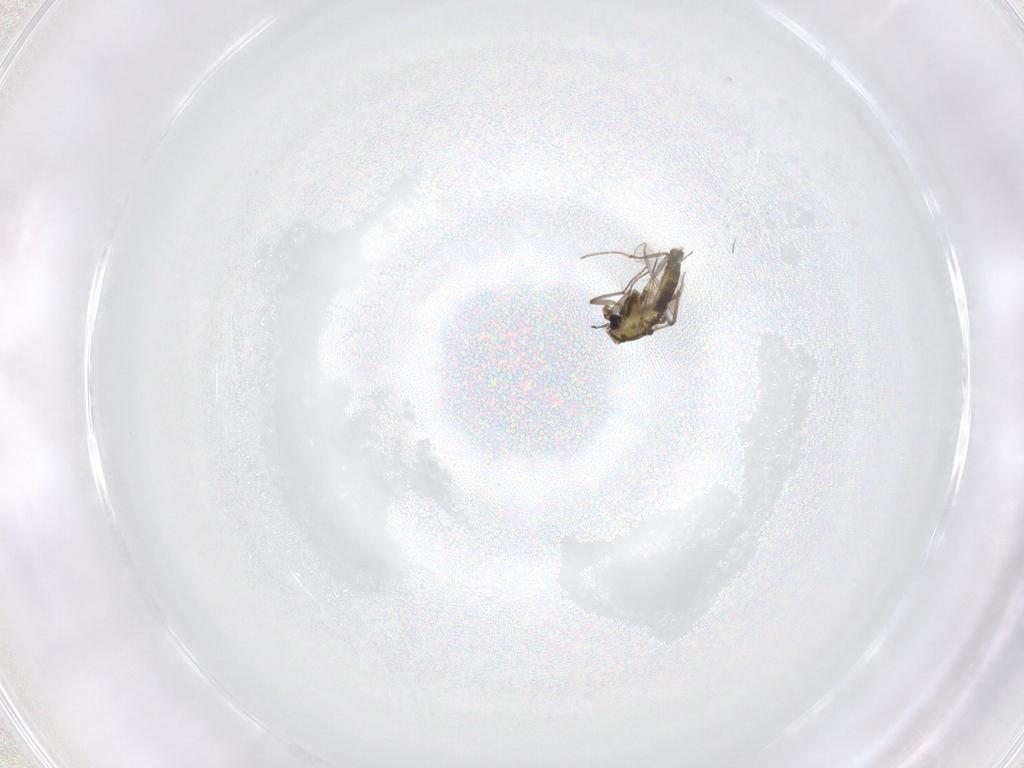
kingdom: Animalia
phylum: Arthropoda
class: Insecta
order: Diptera
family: Chironomidae
